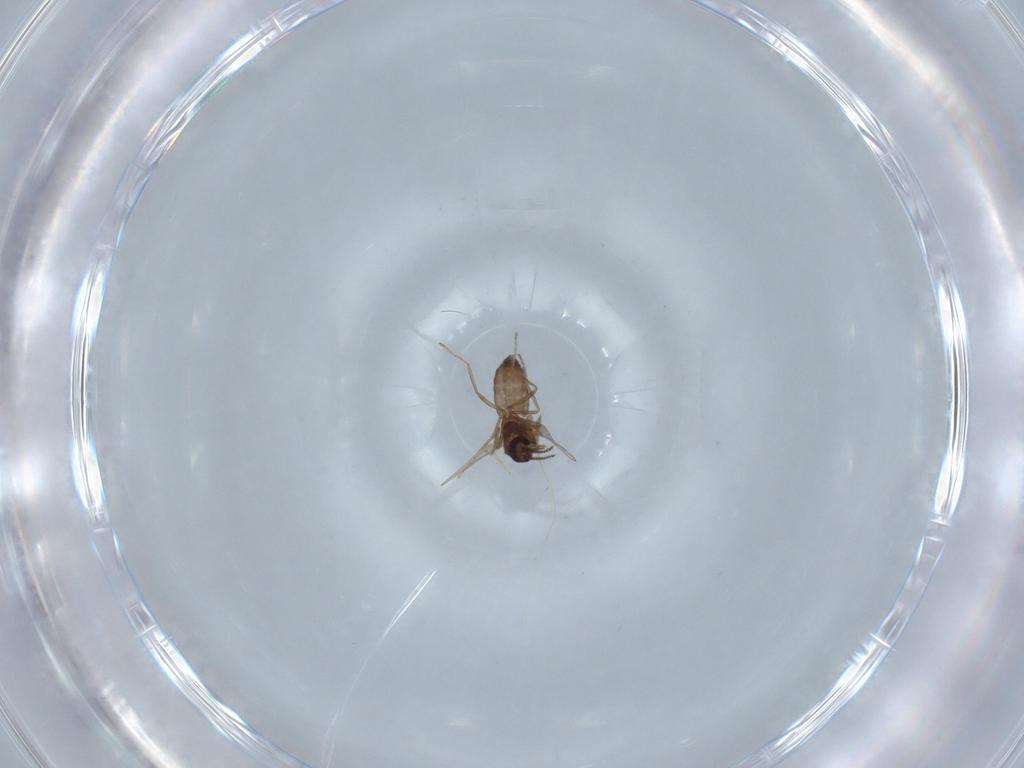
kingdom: Animalia
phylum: Arthropoda
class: Insecta
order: Diptera
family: Ceratopogonidae
